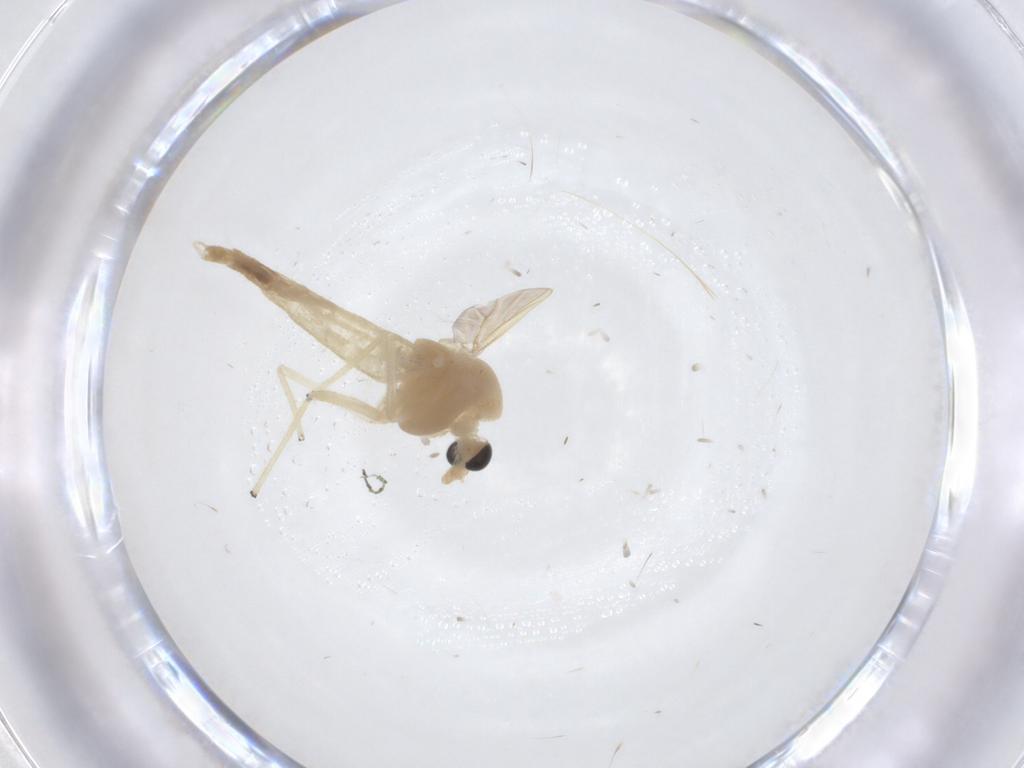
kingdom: Animalia
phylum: Arthropoda
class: Insecta
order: Diptera
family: Chironomidae
